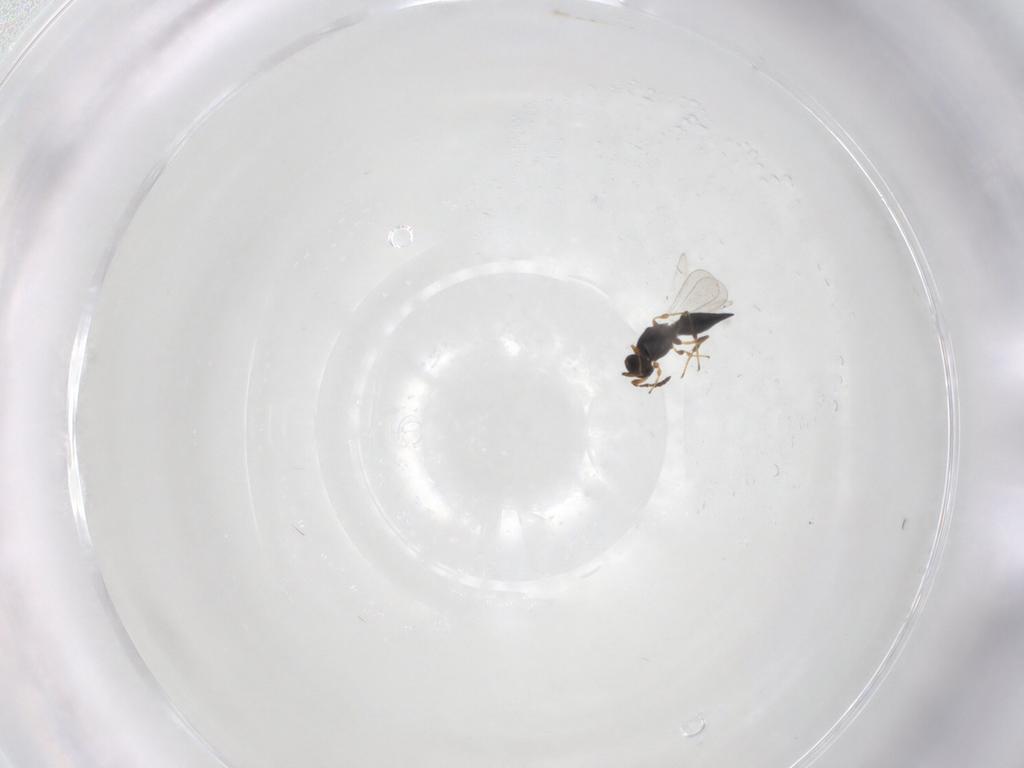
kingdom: Animalia
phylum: Arthropoda
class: Insecta
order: Hymenoptera
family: Platygastridae
